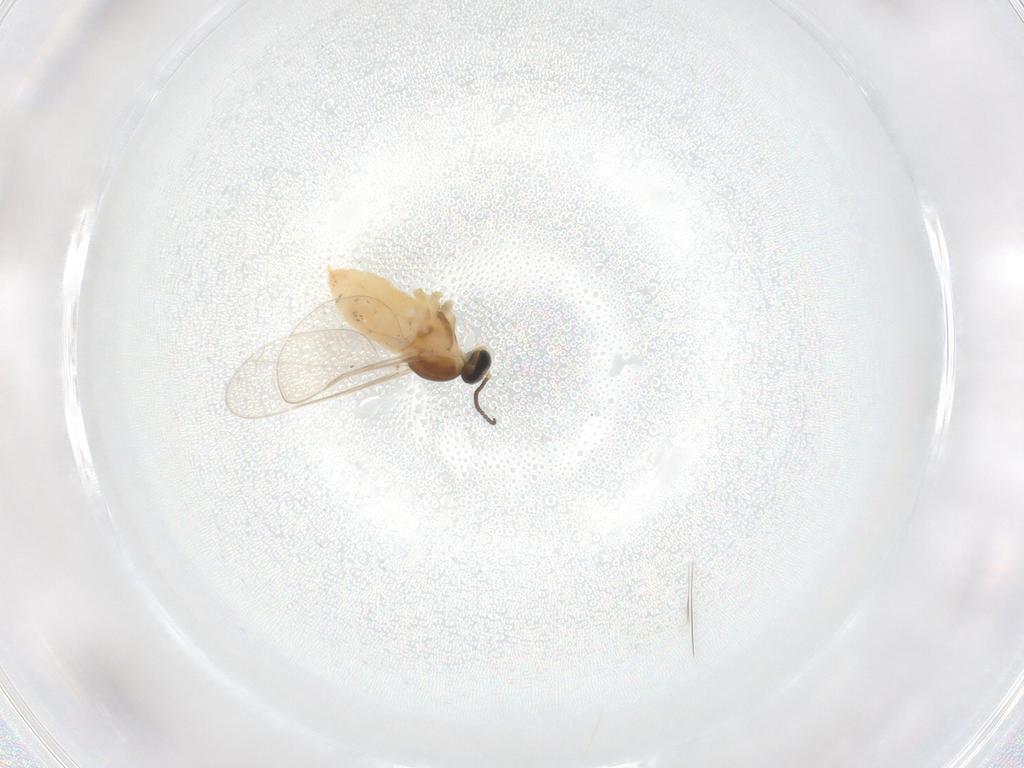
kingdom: Animalia
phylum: Arthropoda
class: Insecta
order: Diptera
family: Cecidomyiidae
